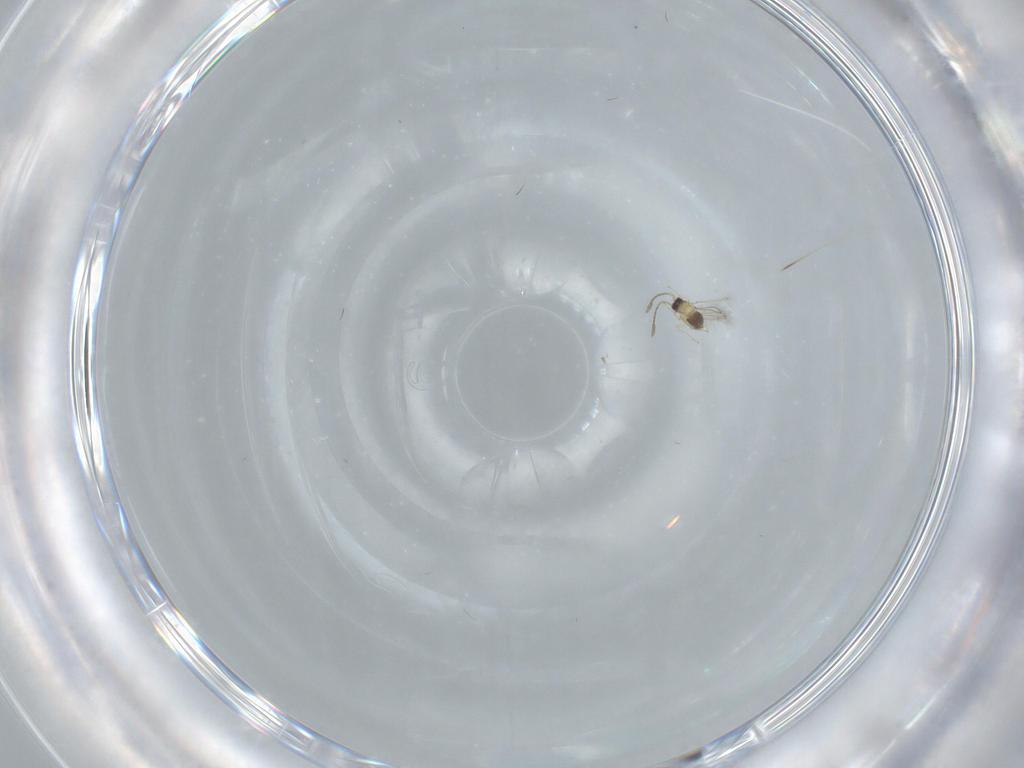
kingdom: Animalia
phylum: Arthropoda
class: Insecta
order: Hymenoptera
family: Mymaridae
